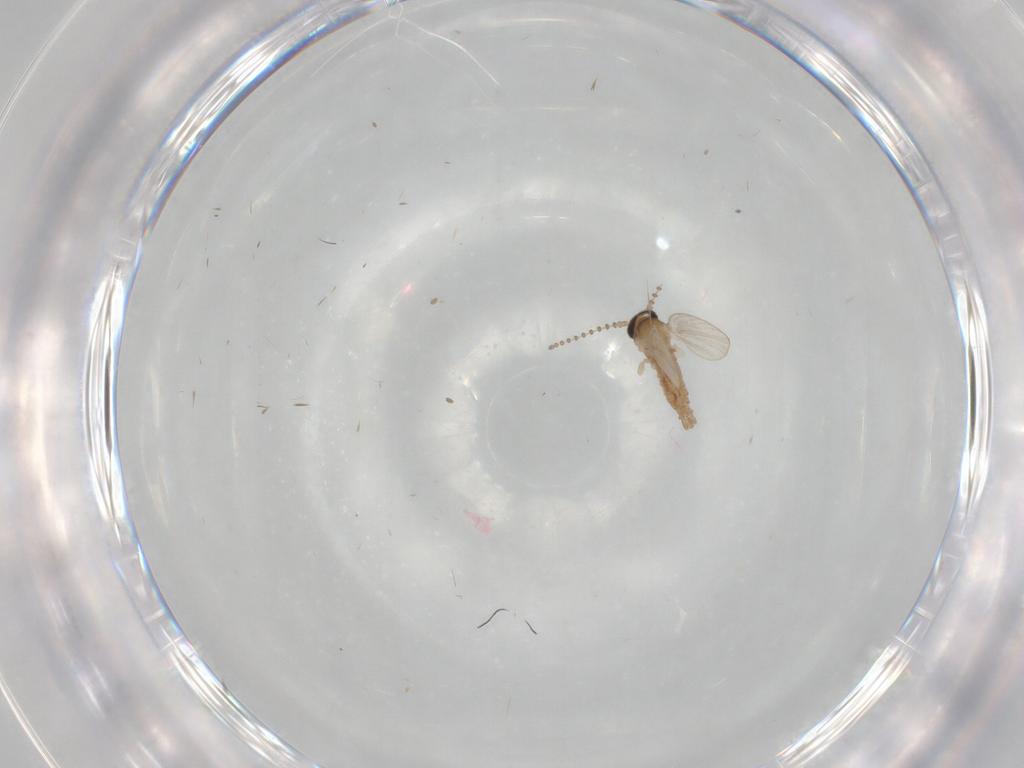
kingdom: Animalia
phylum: Arthropoda
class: Insecta
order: Diptera
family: Psychodidae
